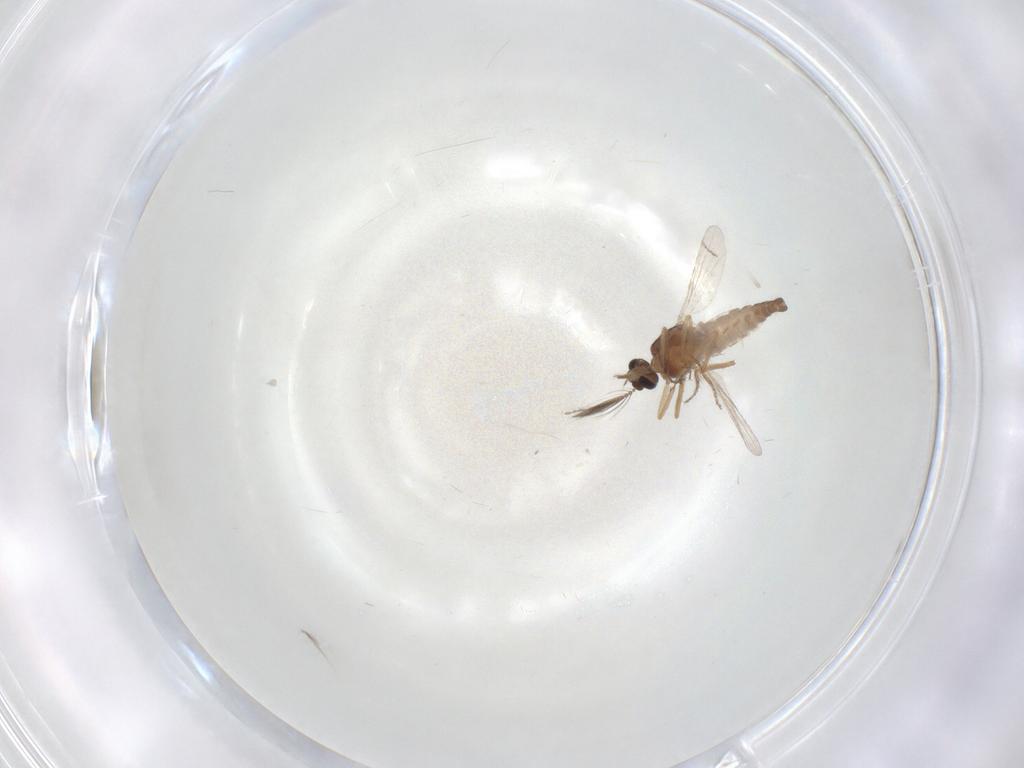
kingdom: Animalia
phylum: Arthropoda
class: Insecta
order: Diptera
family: Ceratopogonidae
